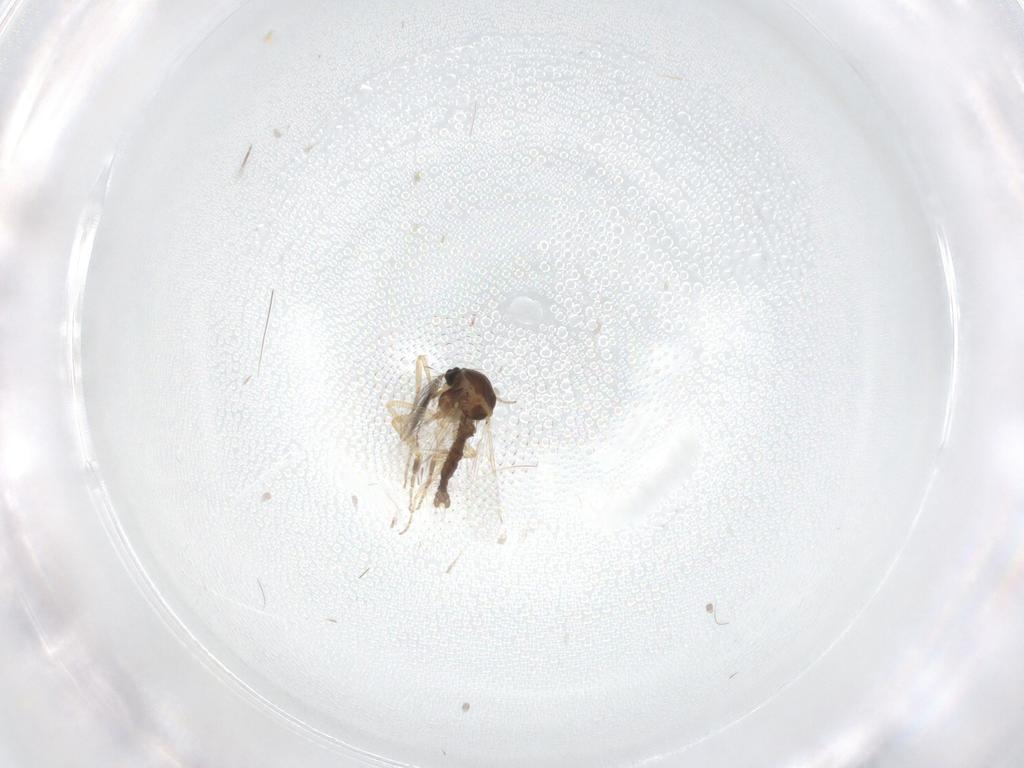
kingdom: Animalia
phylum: Arthropoda
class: Insecta
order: Diptera
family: Ceratopogonidae
